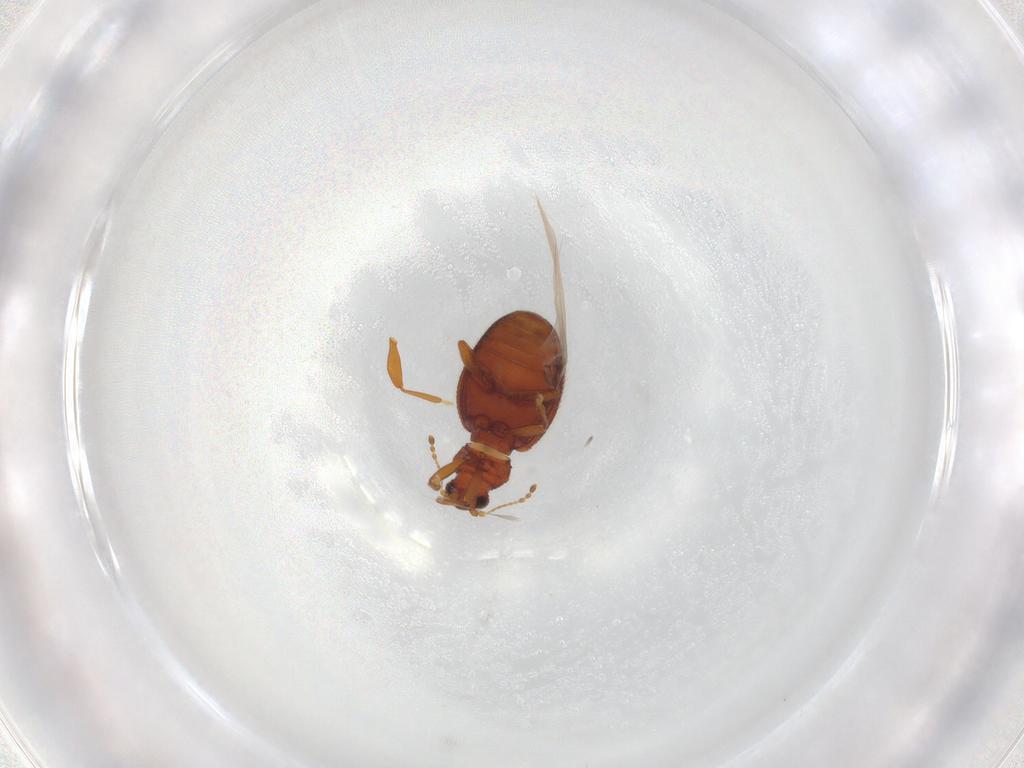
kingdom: Animalia
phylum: Arthropoda
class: Insecta
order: Coleoptera
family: Latridiidae
